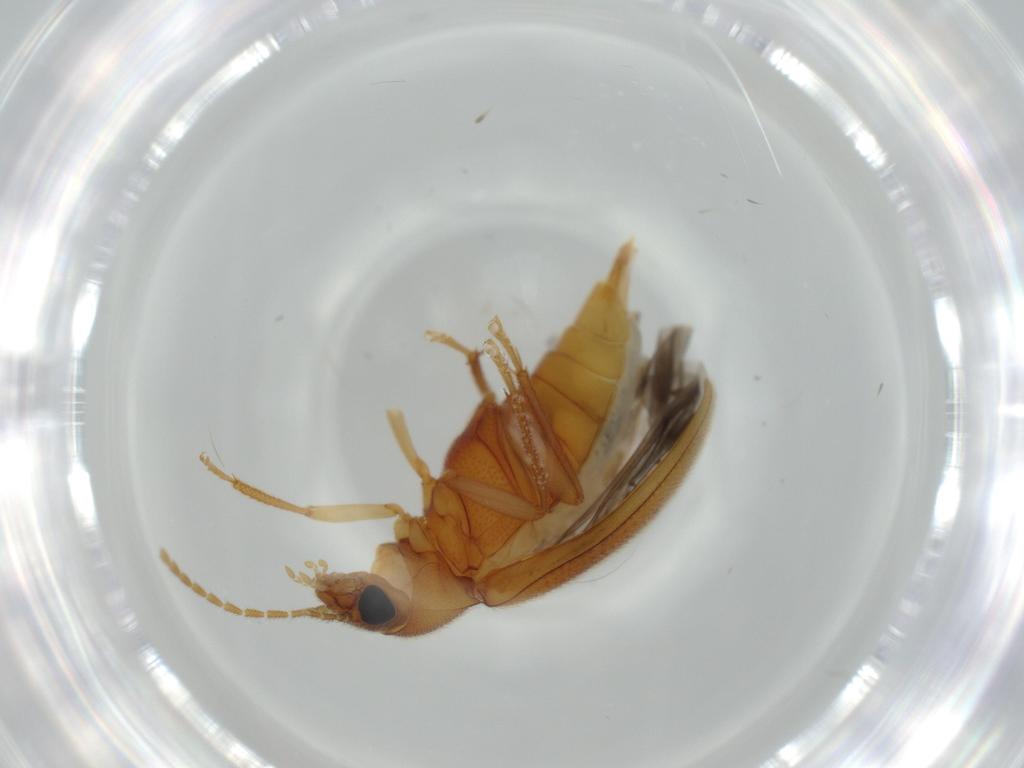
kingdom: Animalia
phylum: Arthropoda
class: Insecta
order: Coleoptera
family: Ptilodactylidae
